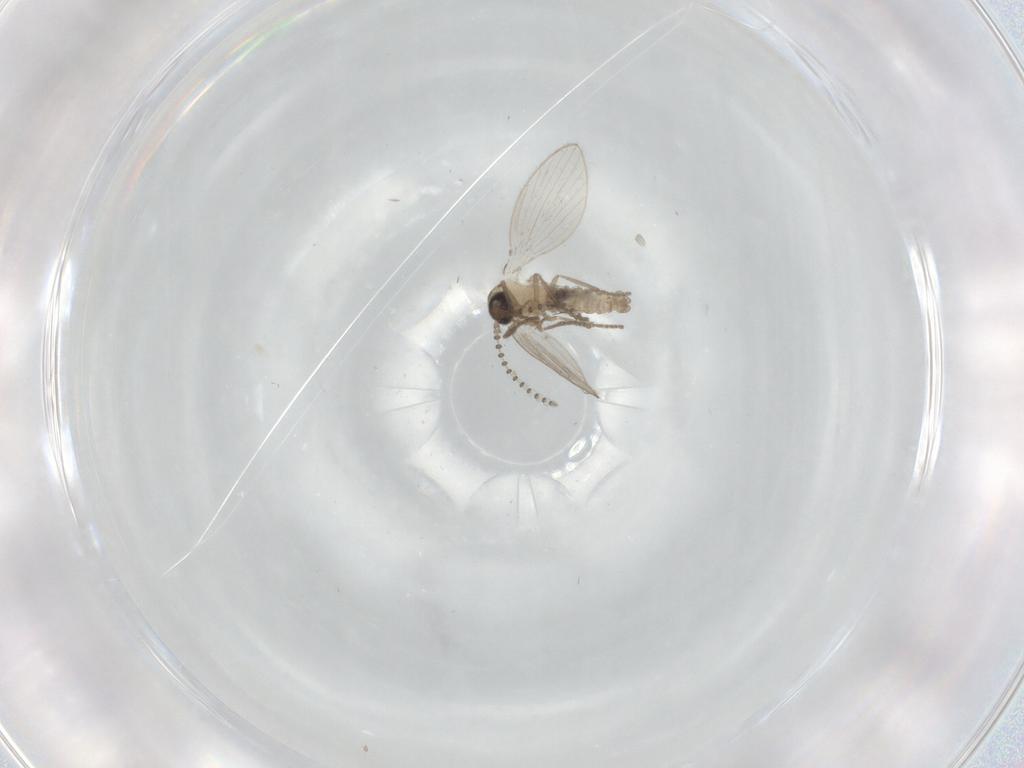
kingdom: Animalia
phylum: Arthropoda
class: Insecta
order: Diptera
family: Psychodidae
